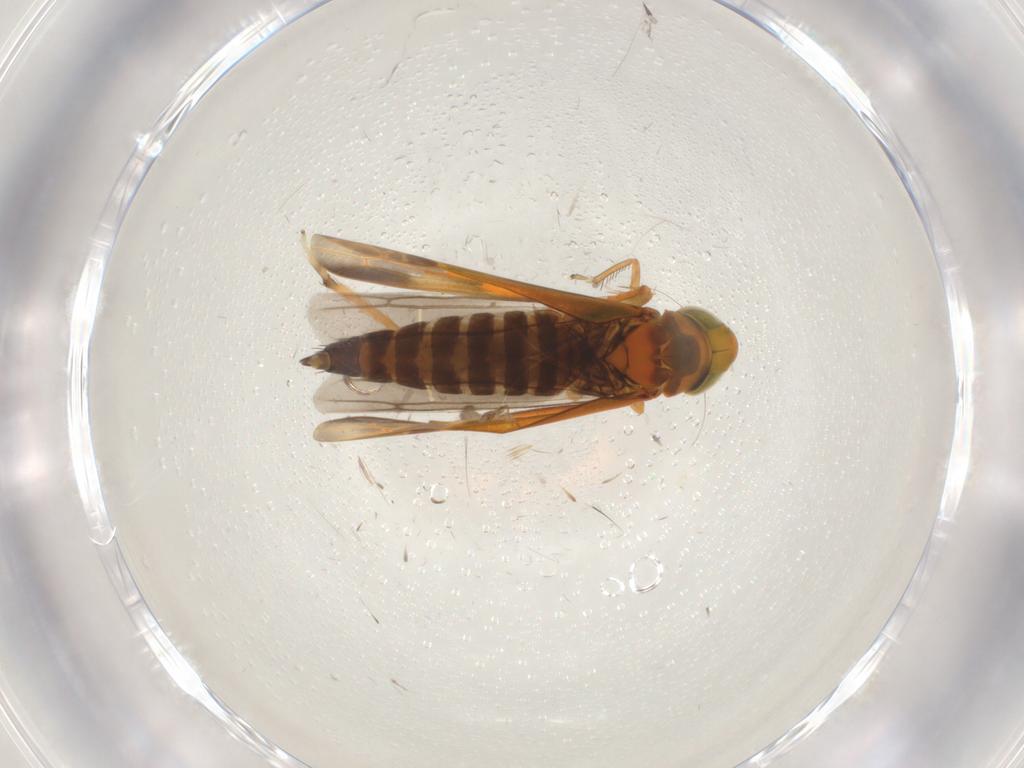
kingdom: Animalia
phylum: Arthropoda
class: Insecta
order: Hemiptera
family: Cicadellidae
